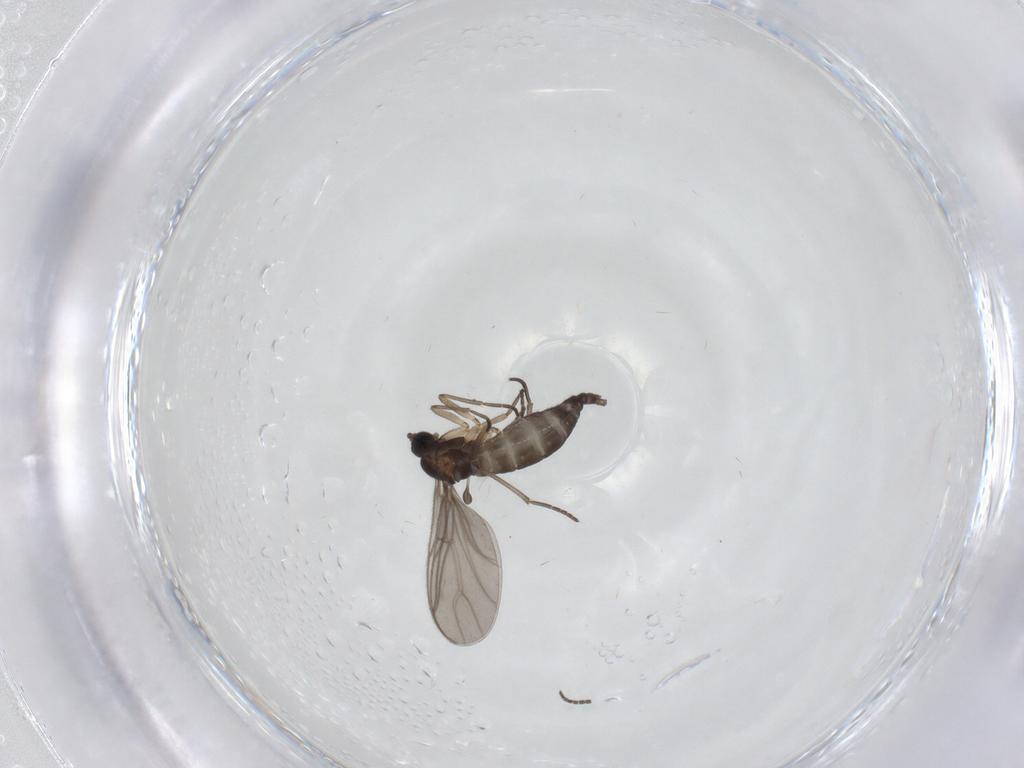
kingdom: Animalia
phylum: Arthropoda
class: Insecta
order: Diptera
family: Sciaridae
